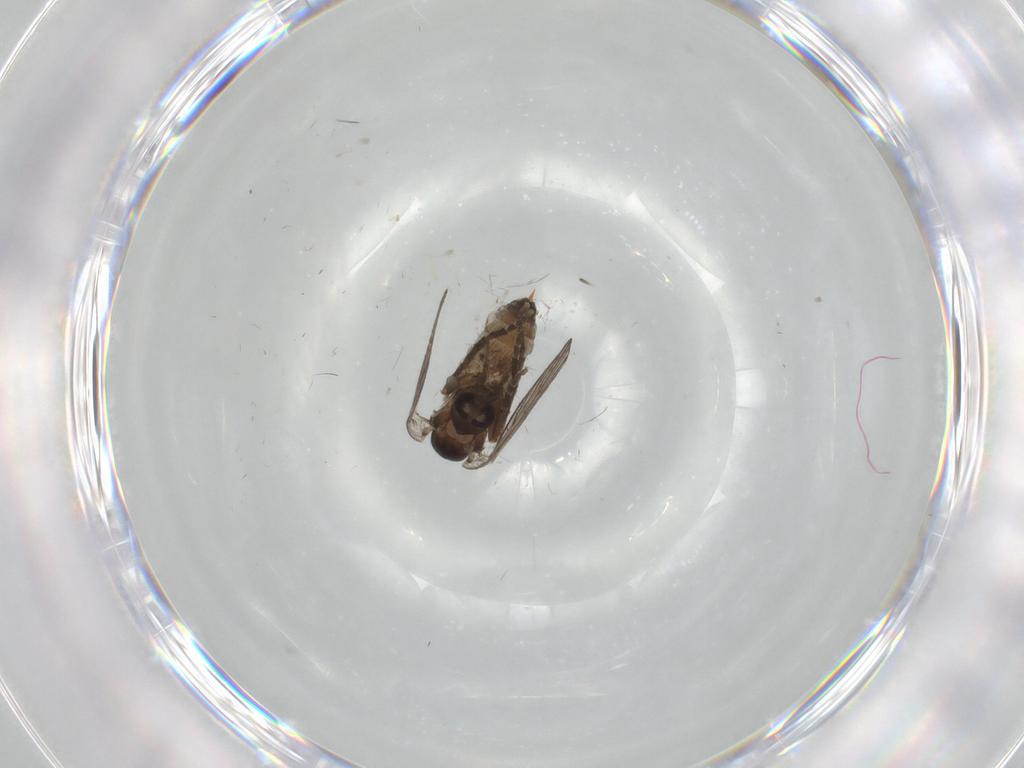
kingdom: Animalia
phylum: Arthropoda
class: Insecta
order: Diptera
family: Psychodidae
